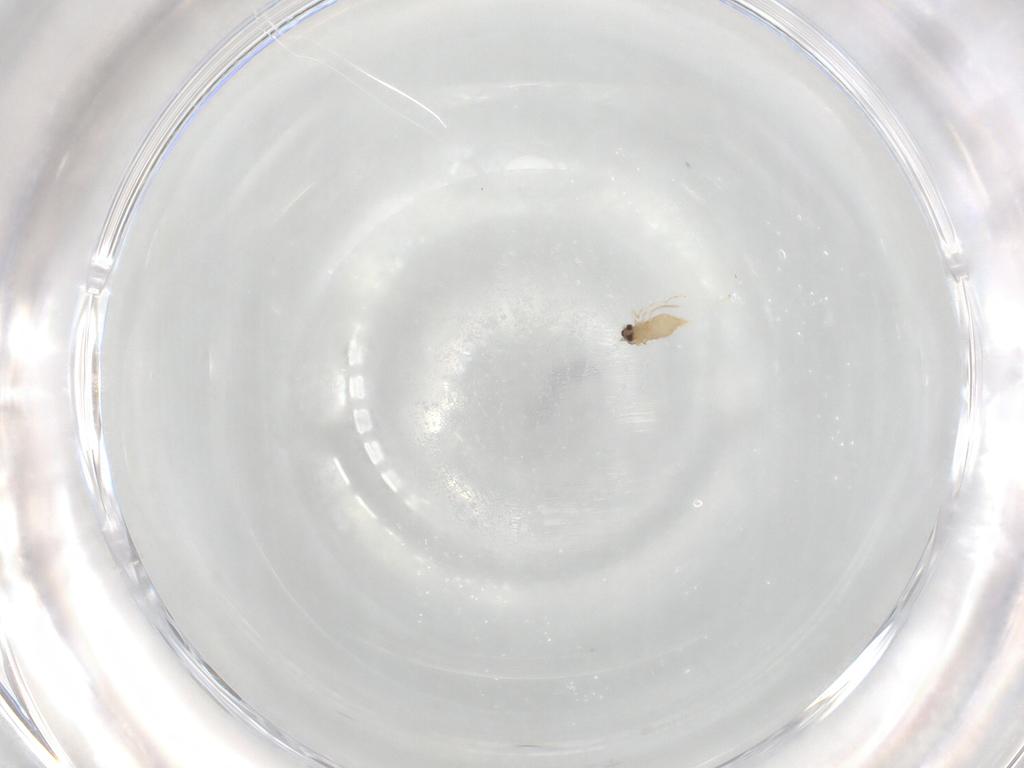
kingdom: Animalia
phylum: Arthropoda
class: Insecta
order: Diptera
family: Cecidomyiidae
